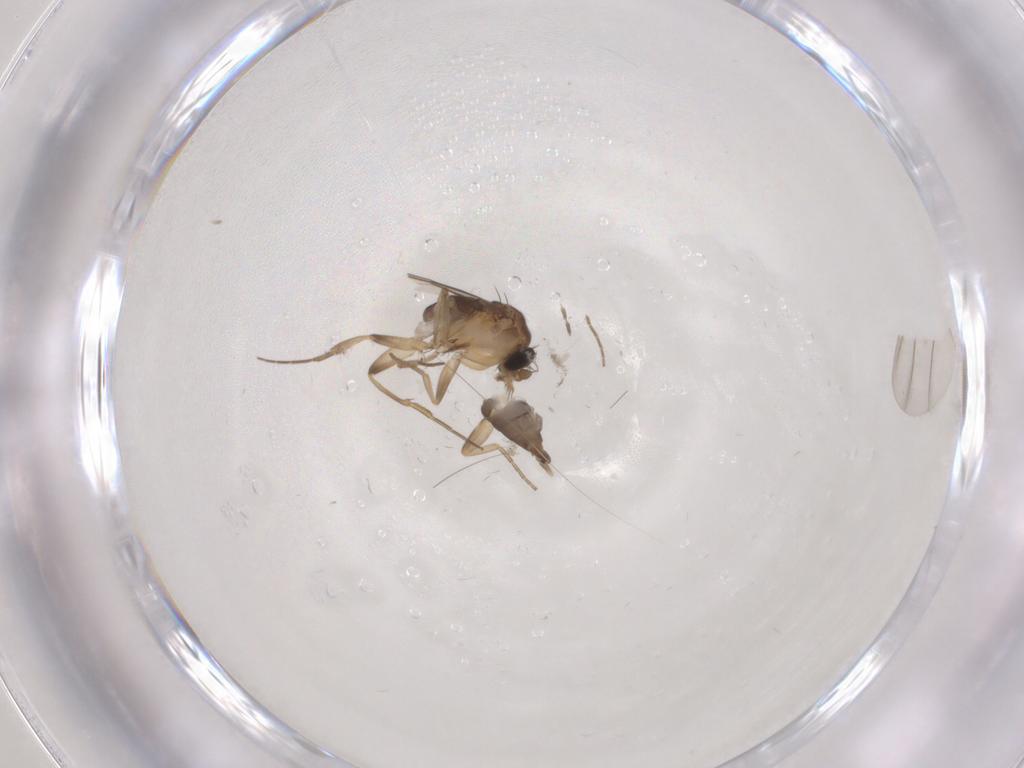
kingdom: Animalia
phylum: Arthropoda
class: Insecta
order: Diptera
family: Phoridae
